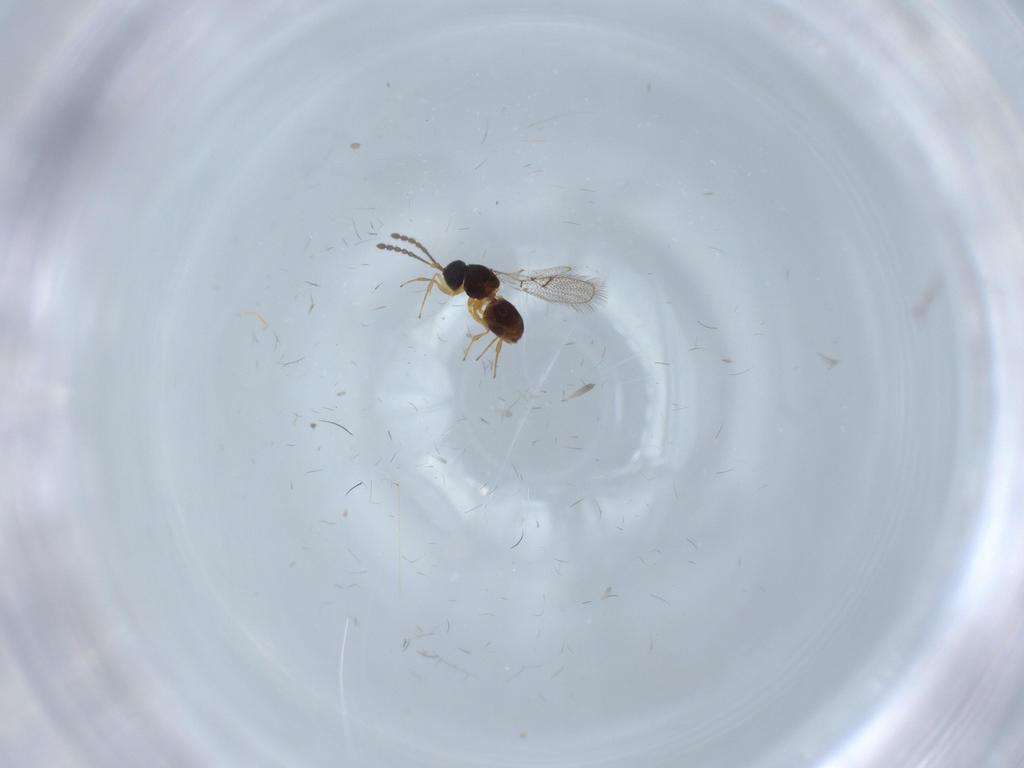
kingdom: Animalia
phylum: Arthropoda
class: Insecta
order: Hymenoptera
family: Figitidae
